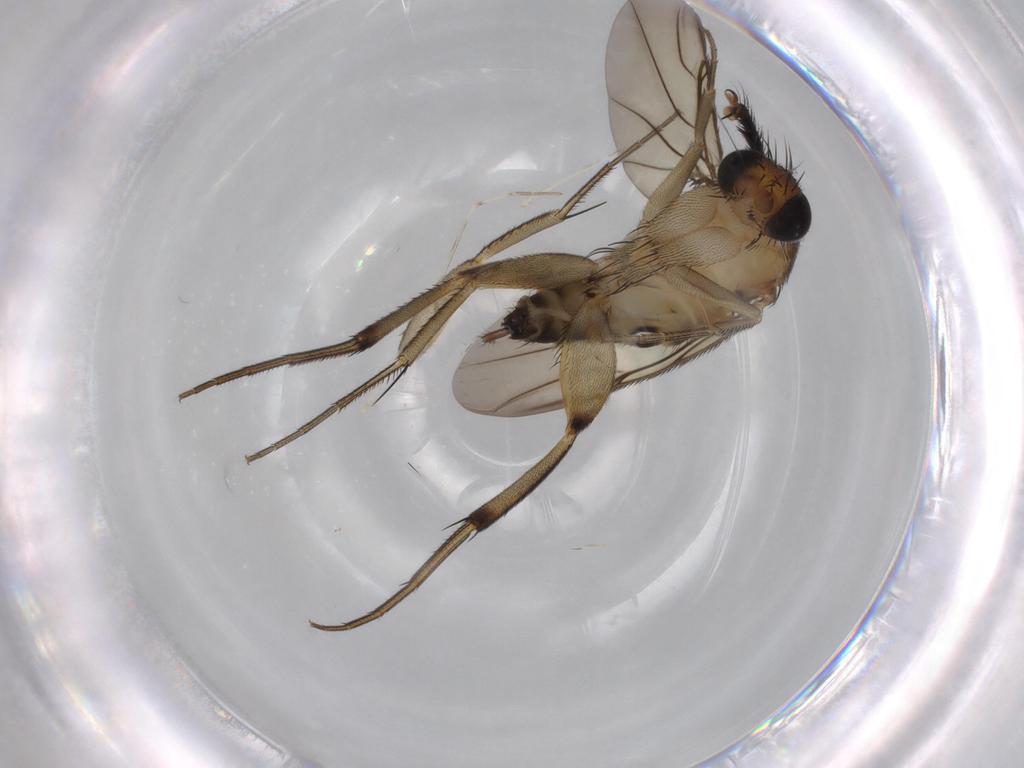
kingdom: Animalia
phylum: Arthropoda
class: Insecta
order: Diptera
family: Phoridae
